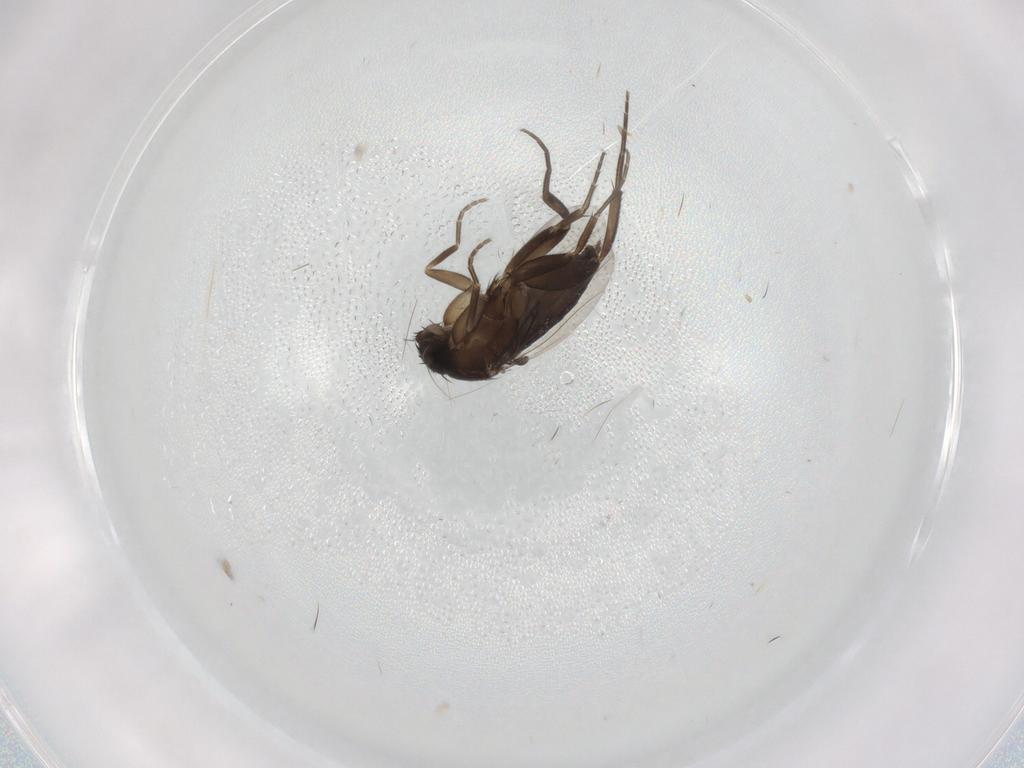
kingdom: Animalia
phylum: Arthropoda
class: Insecta
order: Diptera
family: Phoridae
